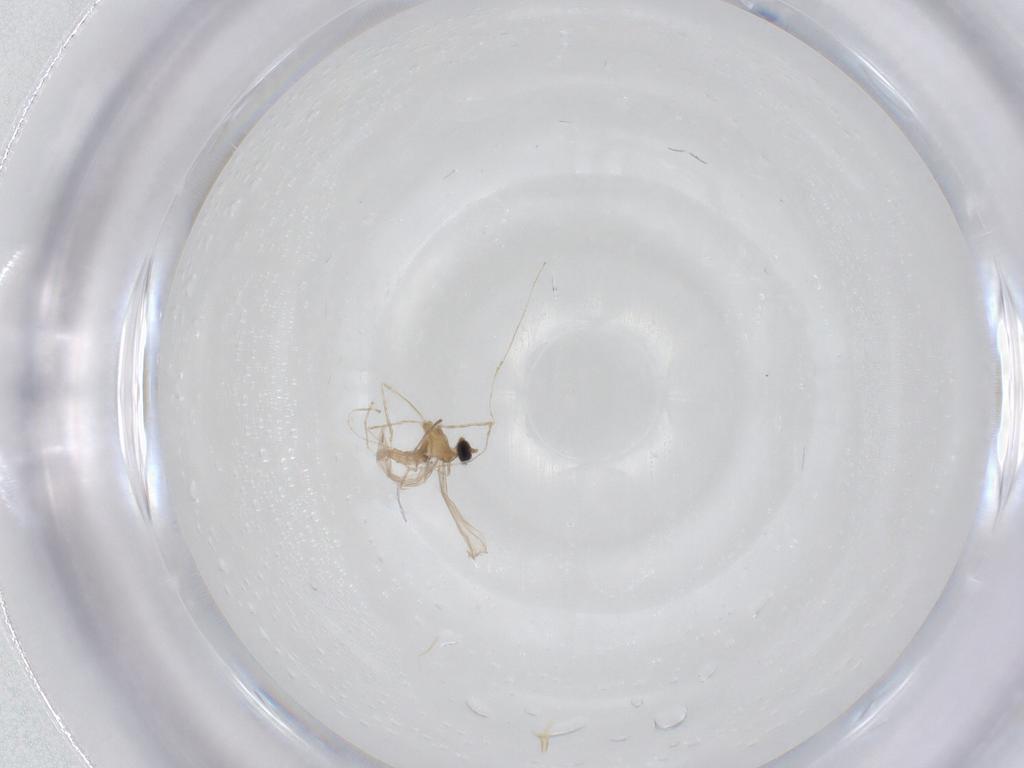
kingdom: Animalia
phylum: Arthropoda
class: Insecta
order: Diptera
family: Cecidomyiidae
